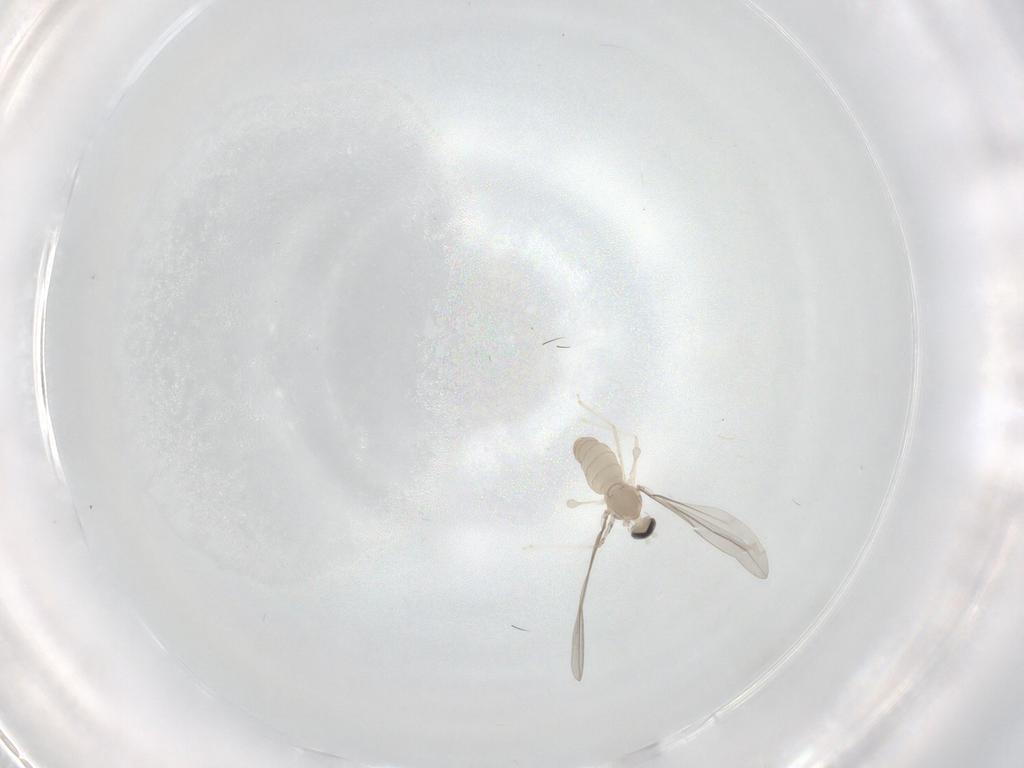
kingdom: Animalia
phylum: Arthropoda
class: Insecta
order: Diptera
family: Cecidomyiidae
